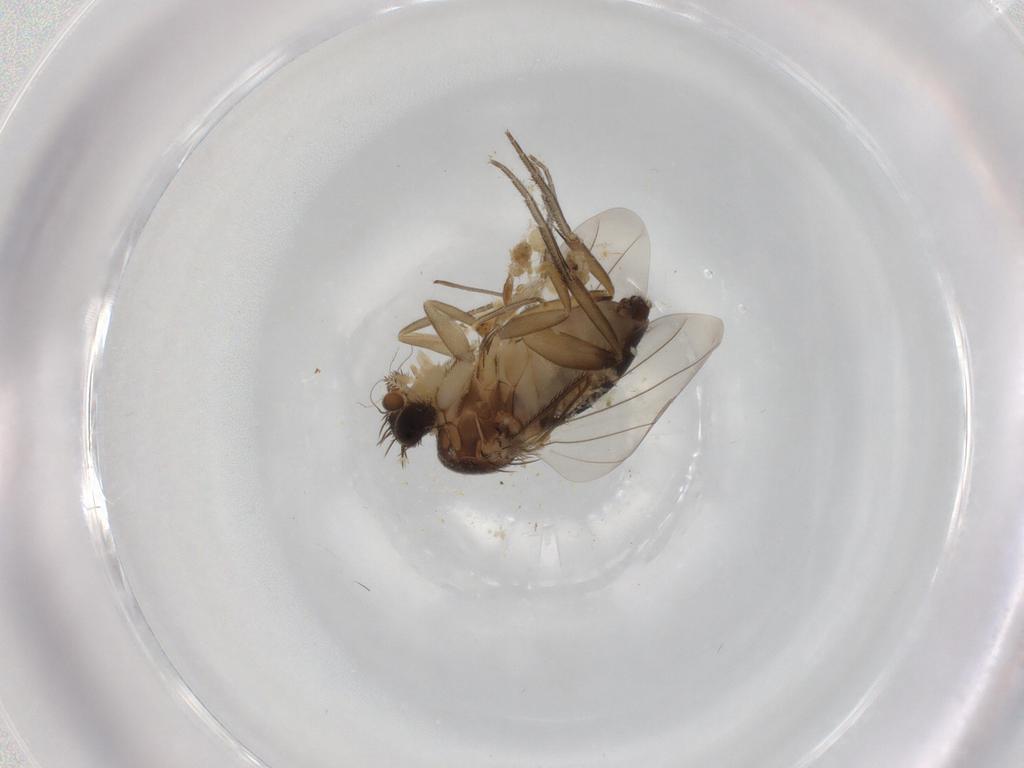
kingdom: Animalia
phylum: Arthropoda
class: Insecta
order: Diptera
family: Phoridae
